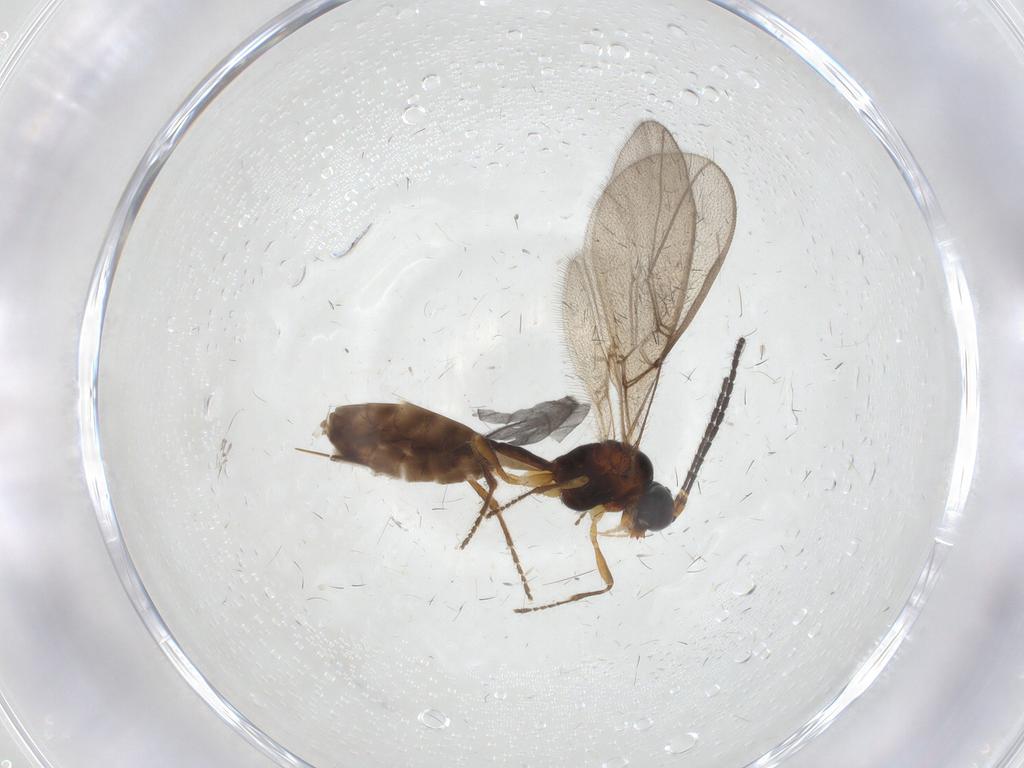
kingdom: Animalia
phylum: Arthropoda
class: Insecta
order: Hymenoptera
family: Braconidae
